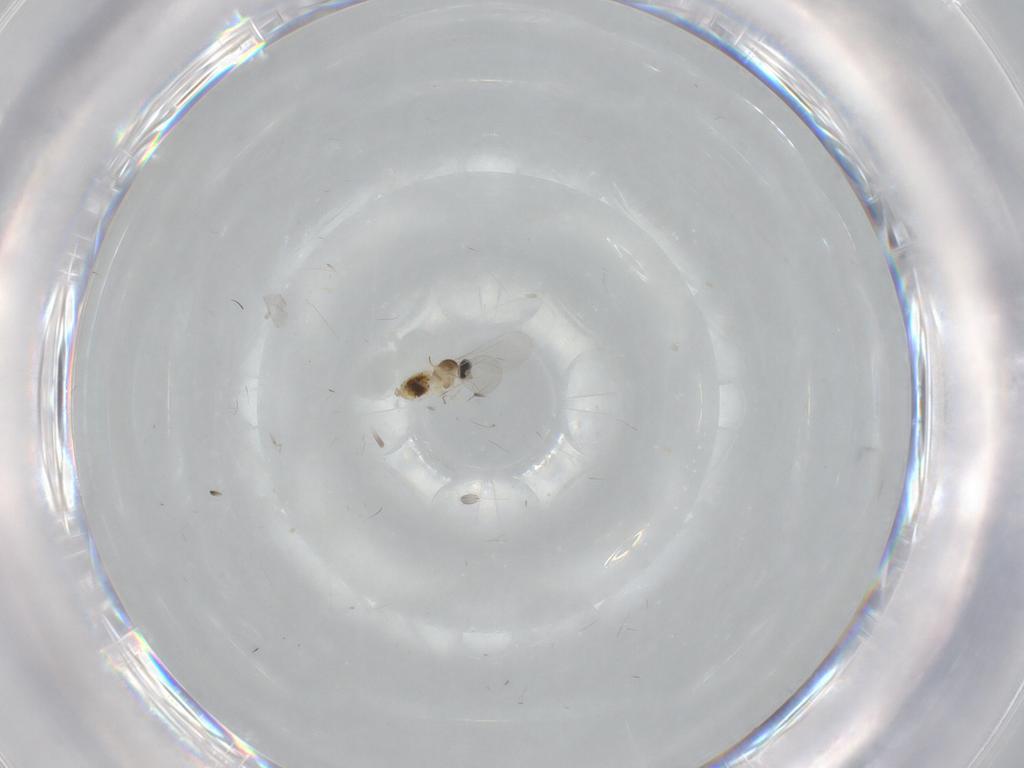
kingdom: Animalia
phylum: Arthropoda
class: Insecta
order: Diptera
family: Cecidomyiidae
